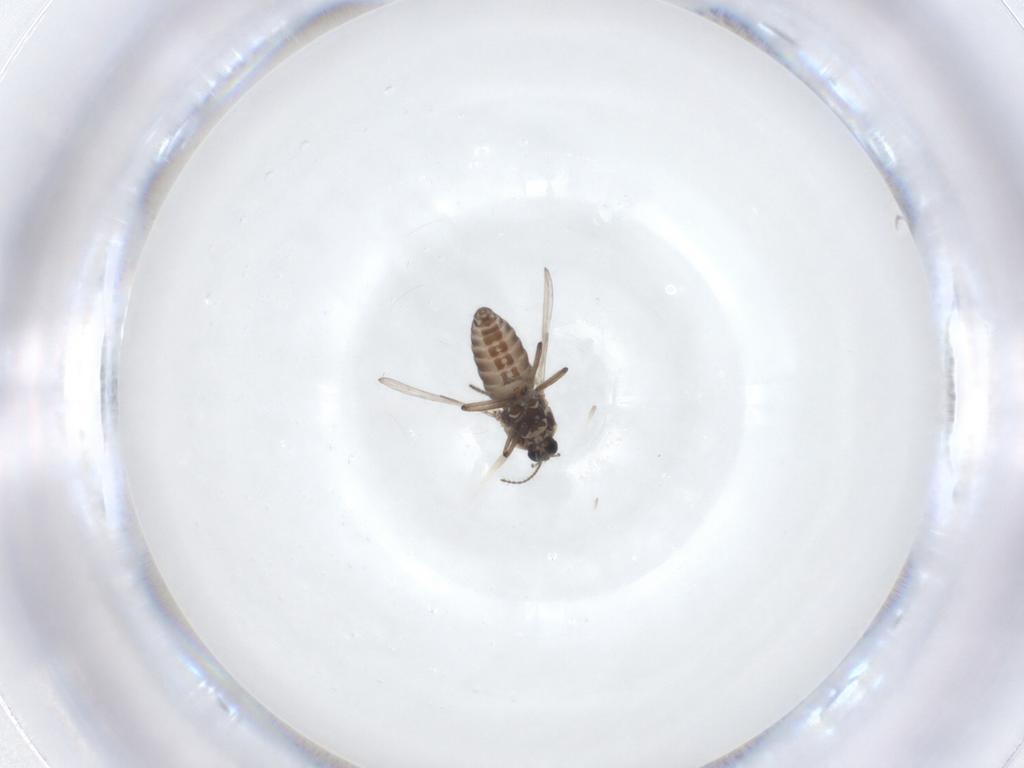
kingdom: Animalia
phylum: Arthropoda
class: Insecta
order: Diptera
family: Ceratopogonidae
